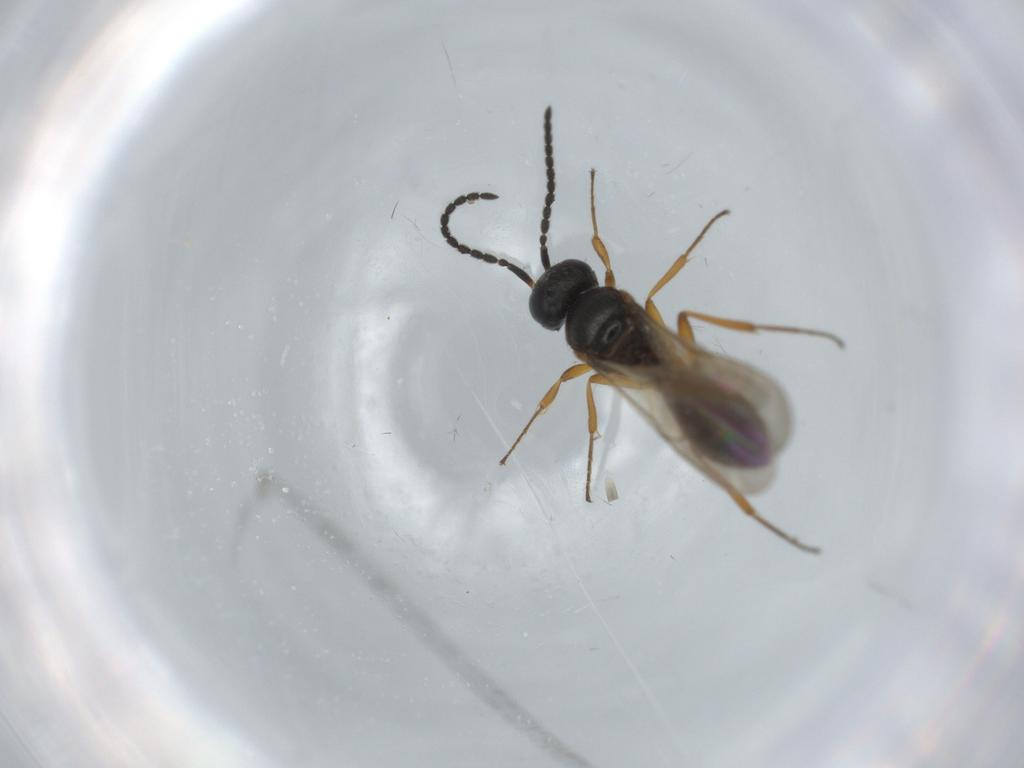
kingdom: Animalia
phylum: Arthropoda
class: Insecta
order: Hymenoptera
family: Scelionidae
